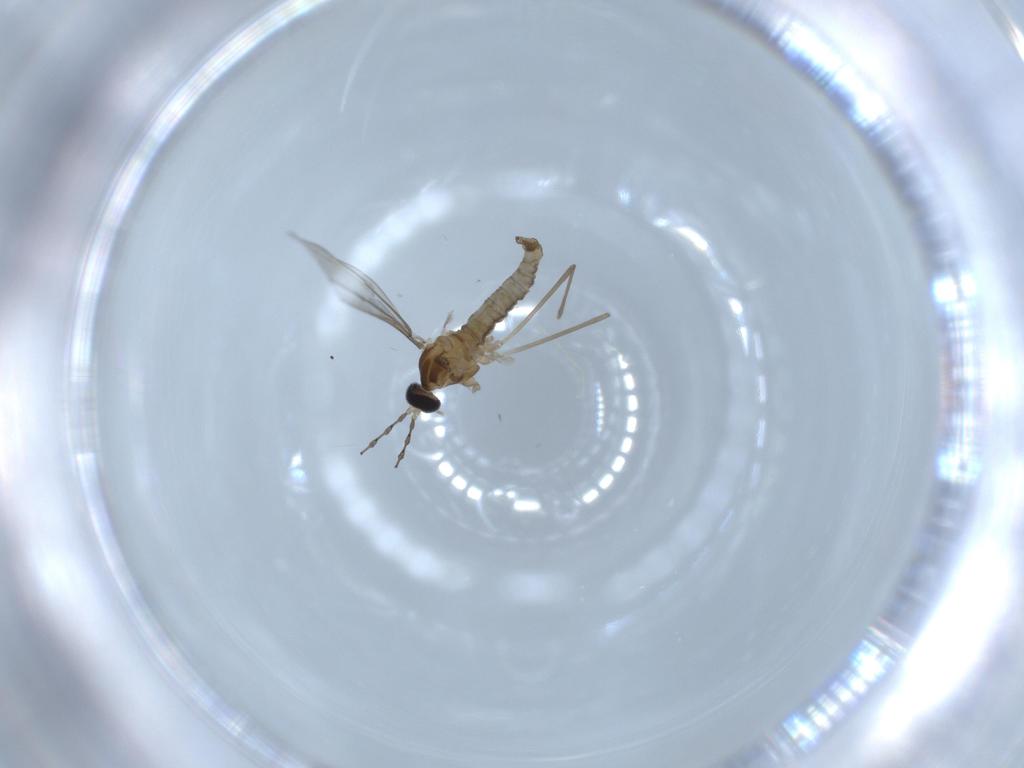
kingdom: Animalia
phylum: Arthropoda
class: Insecta
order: Diptera
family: Cecidomyiidae
